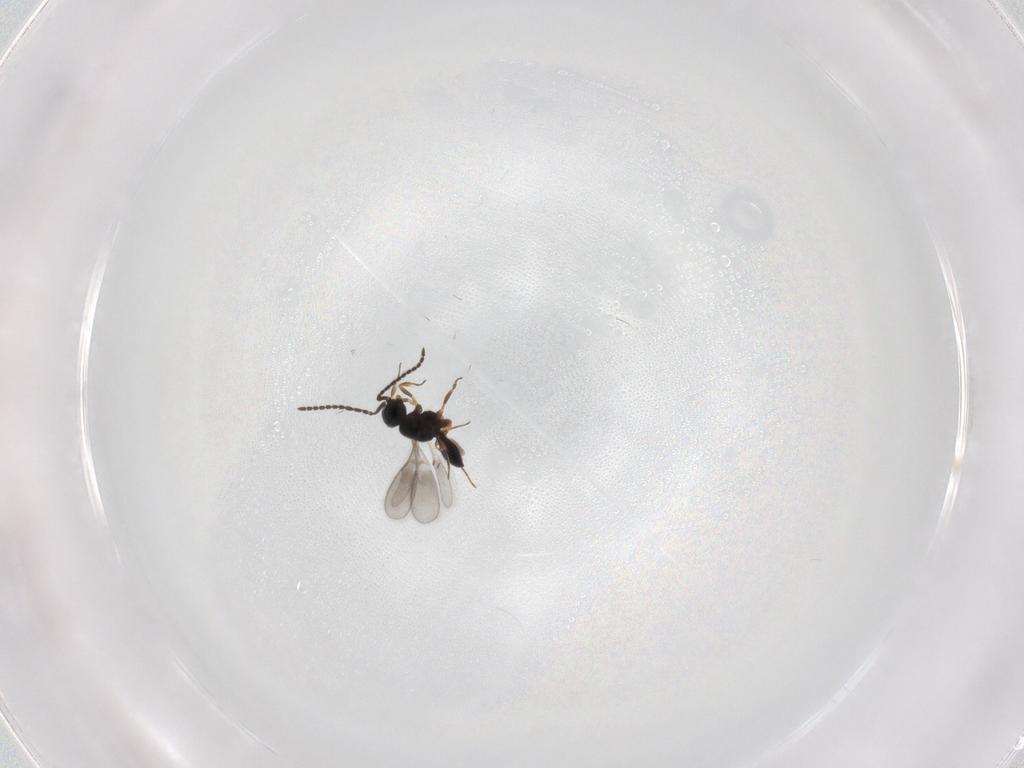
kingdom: Animalia
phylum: Arthropoda
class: Insecta
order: Hymenoptera
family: Scelionidae
